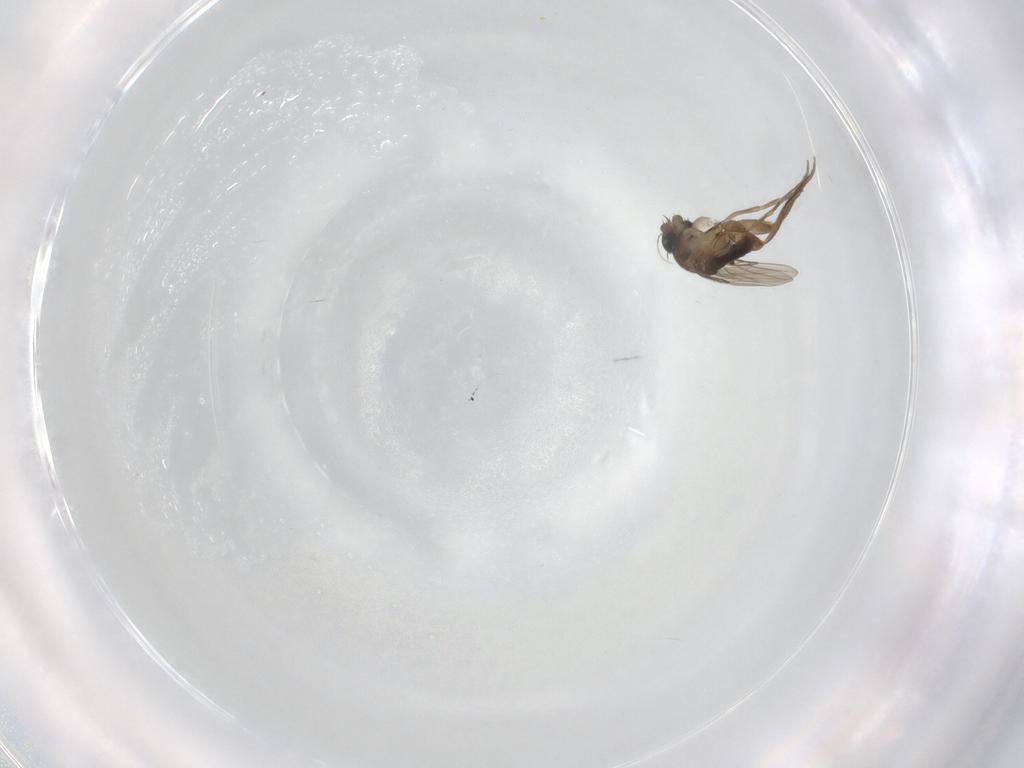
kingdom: Animalia
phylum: Arthropoda
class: Insecta
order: Diptera
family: Phoridae
